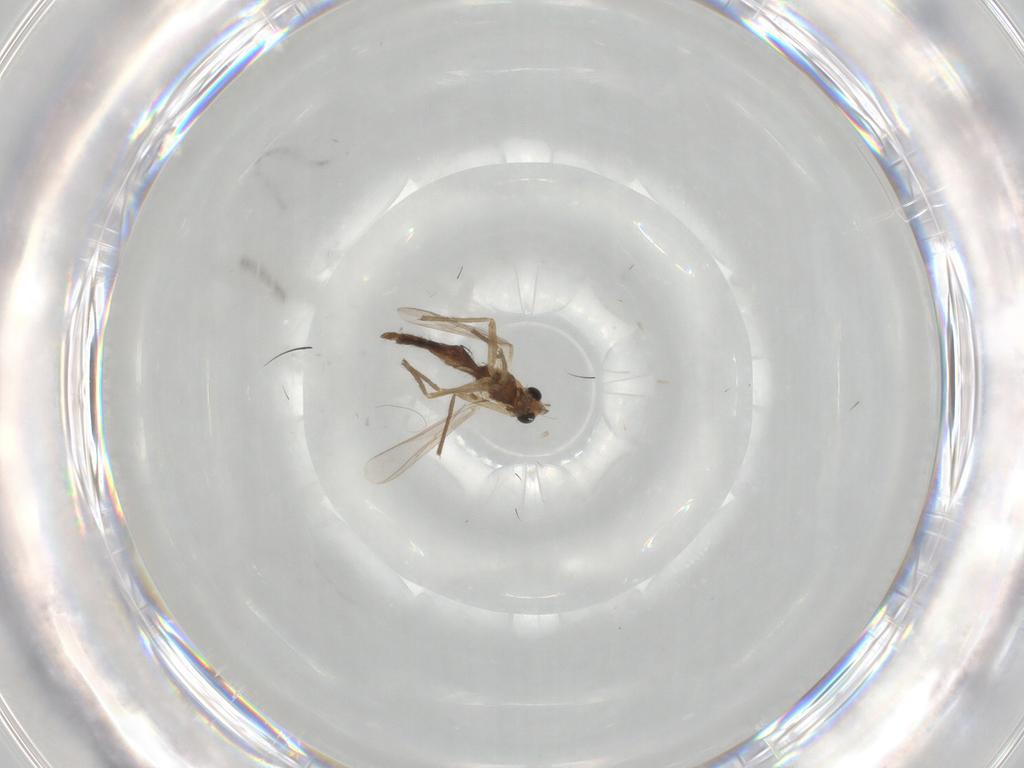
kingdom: Animalia
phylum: Arthropoda
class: Insecta
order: Diptera
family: Chironomidae
